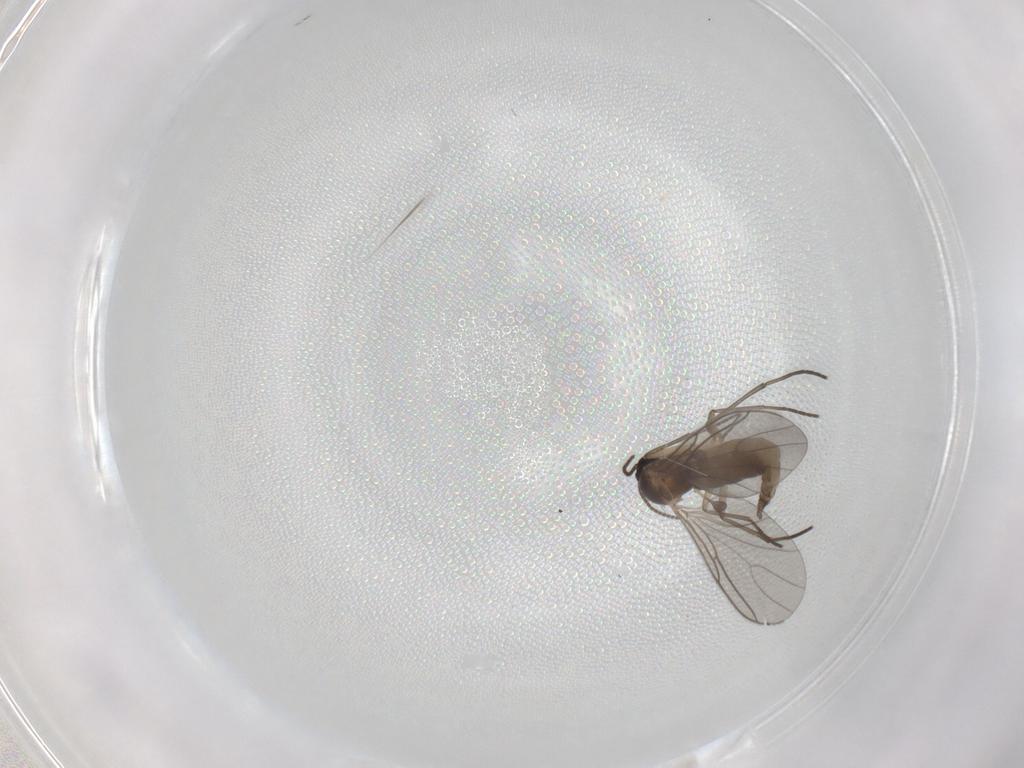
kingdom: Animalia
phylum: Arthropoda
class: Insecta
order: Diptera
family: Sciaridae
